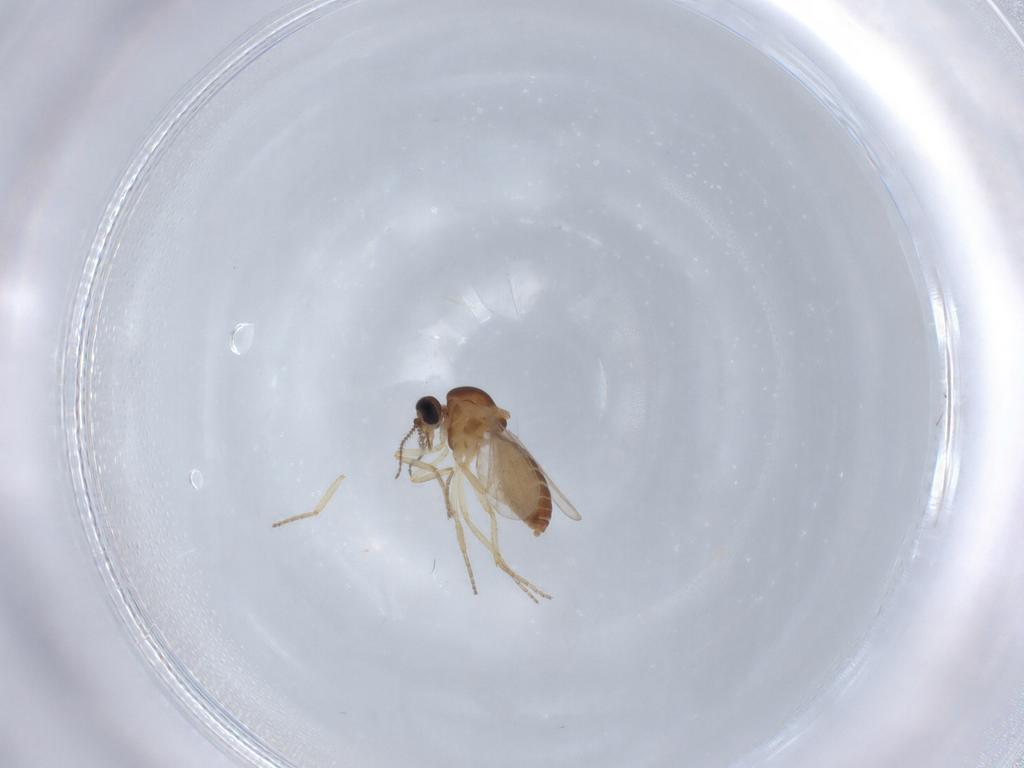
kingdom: Animalia
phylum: Arthropoda
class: Insecta
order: Diptera
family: Ceratopogonidae
